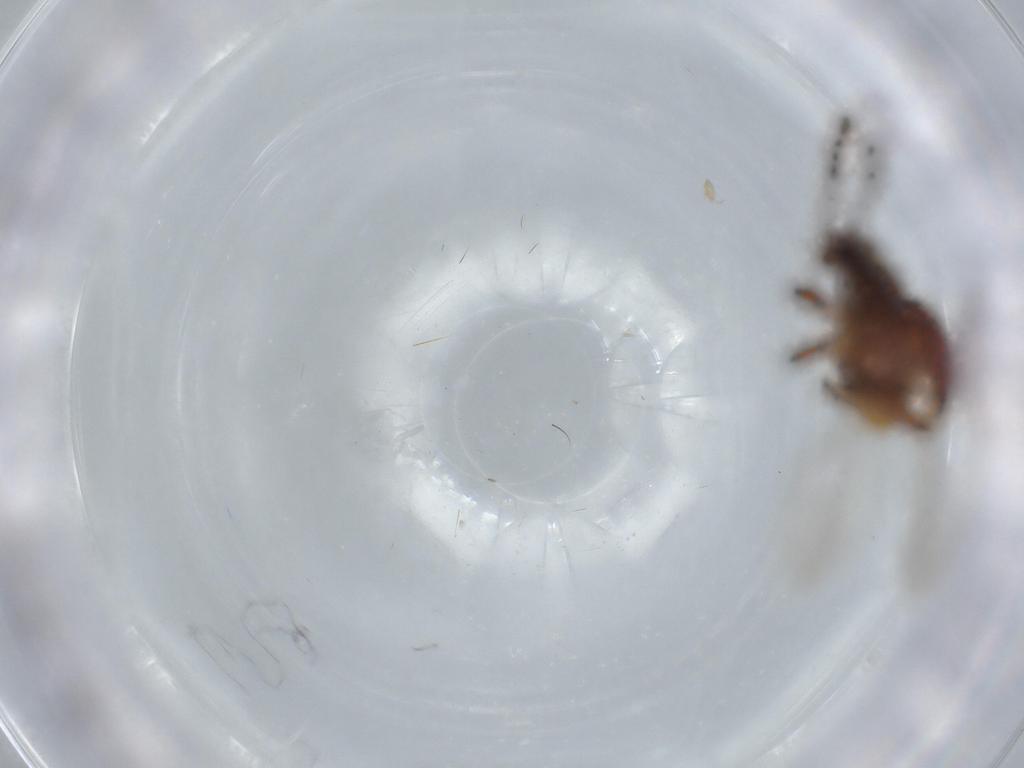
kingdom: Animalia
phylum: Arthropoda
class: Insecta
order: Coleoptera
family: Staphylinidae
